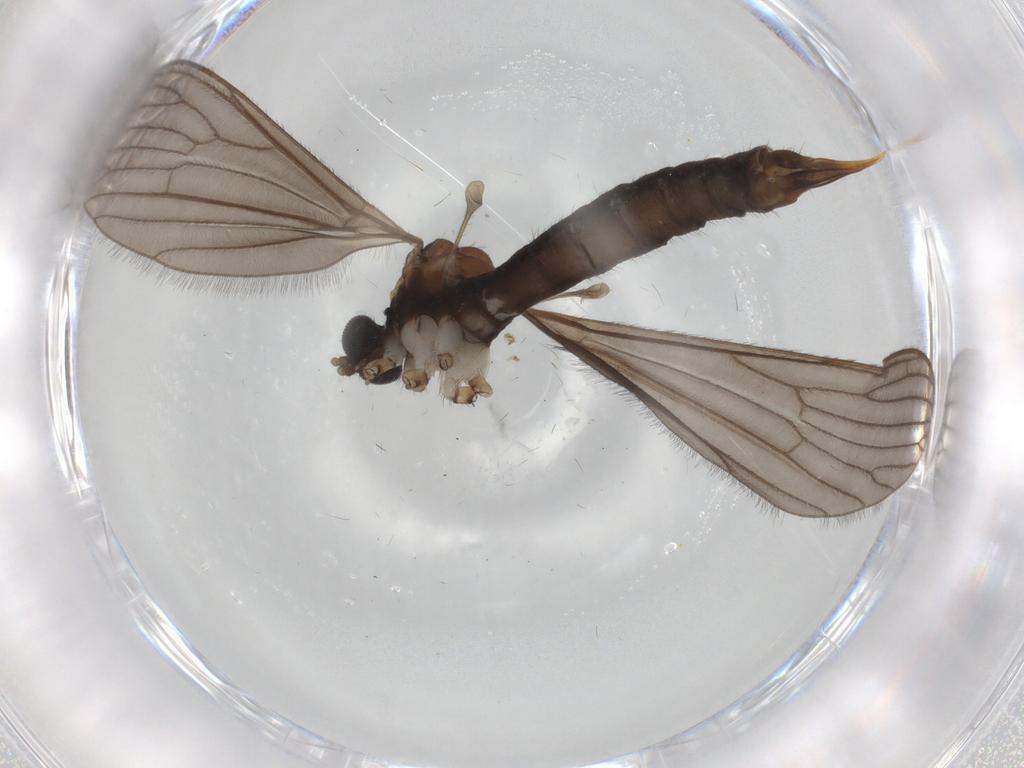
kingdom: Animalia
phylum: Arthropoda
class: Insecta
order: Diptera
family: Limoniidae
